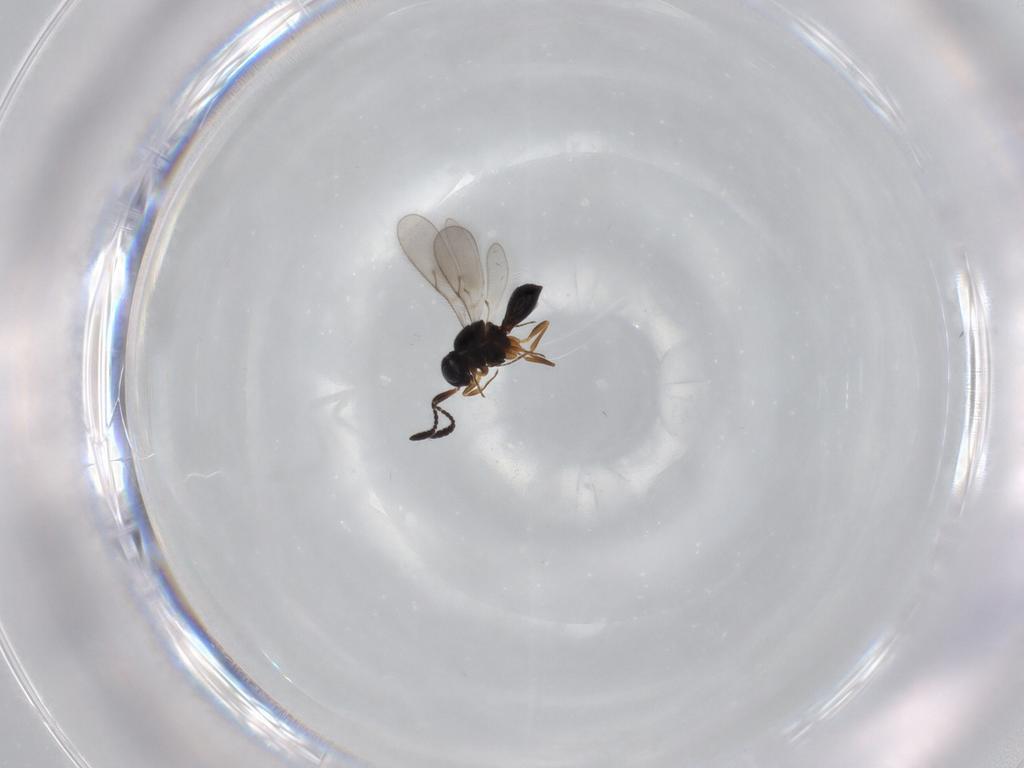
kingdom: Animalia
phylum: Arthropoda
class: Insecta
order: Hymenoptera
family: Scelionidae
